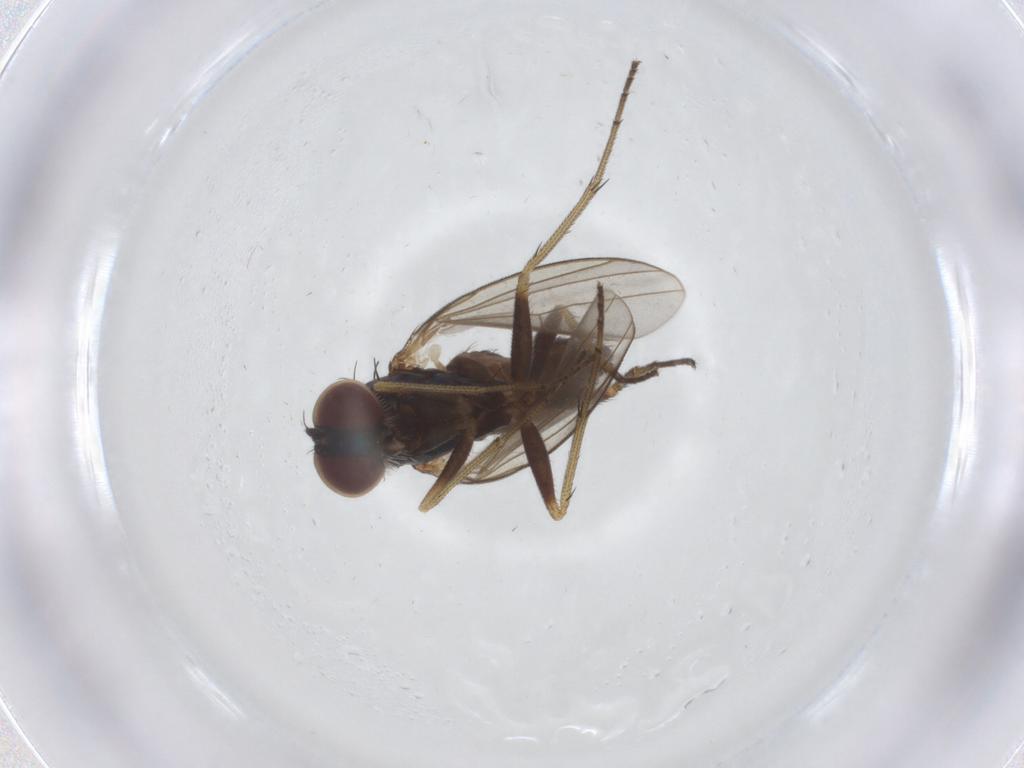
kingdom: Animalia
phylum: Arthropoda
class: Insecta
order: Diptera
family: Dolichopodidae
